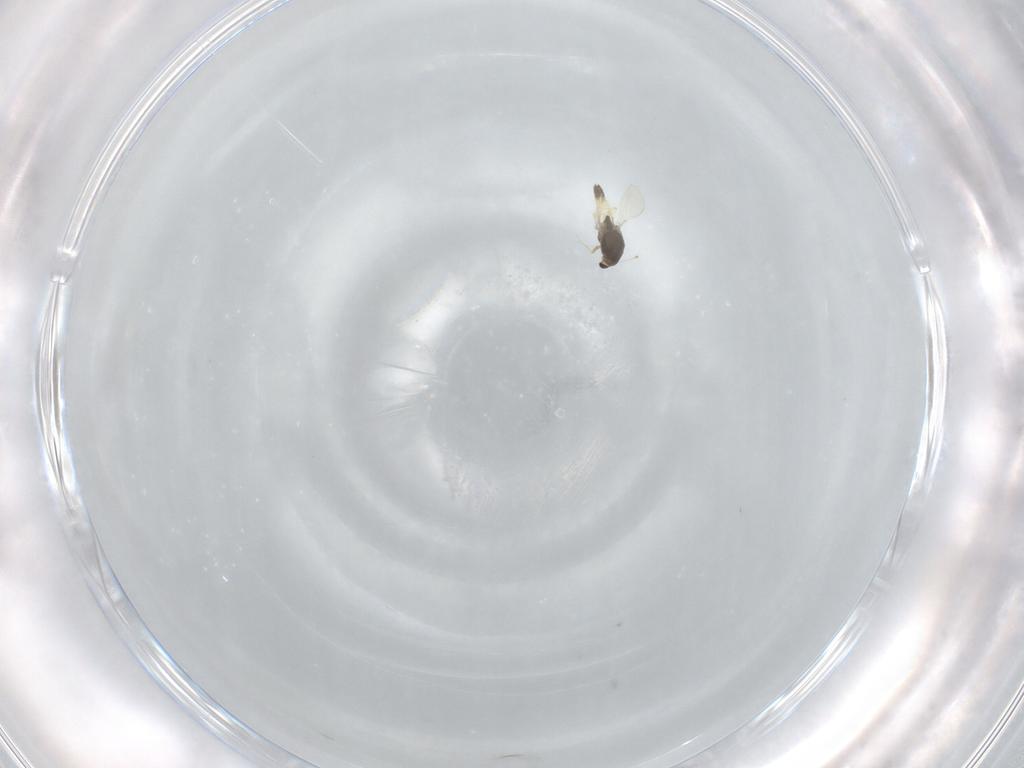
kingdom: Animalia
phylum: Arthropoda
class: Insecta
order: Diptera
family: Chironomidae
